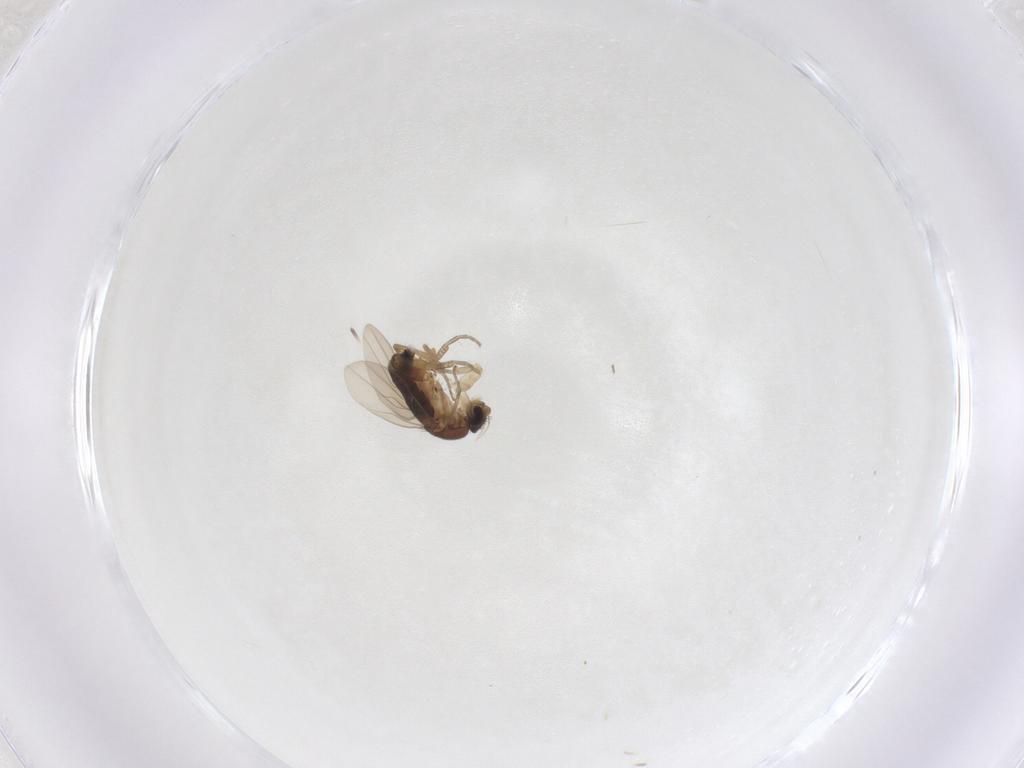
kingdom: Animalia
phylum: Arthropoda
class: Insecta
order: Diptera
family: Phoridae
